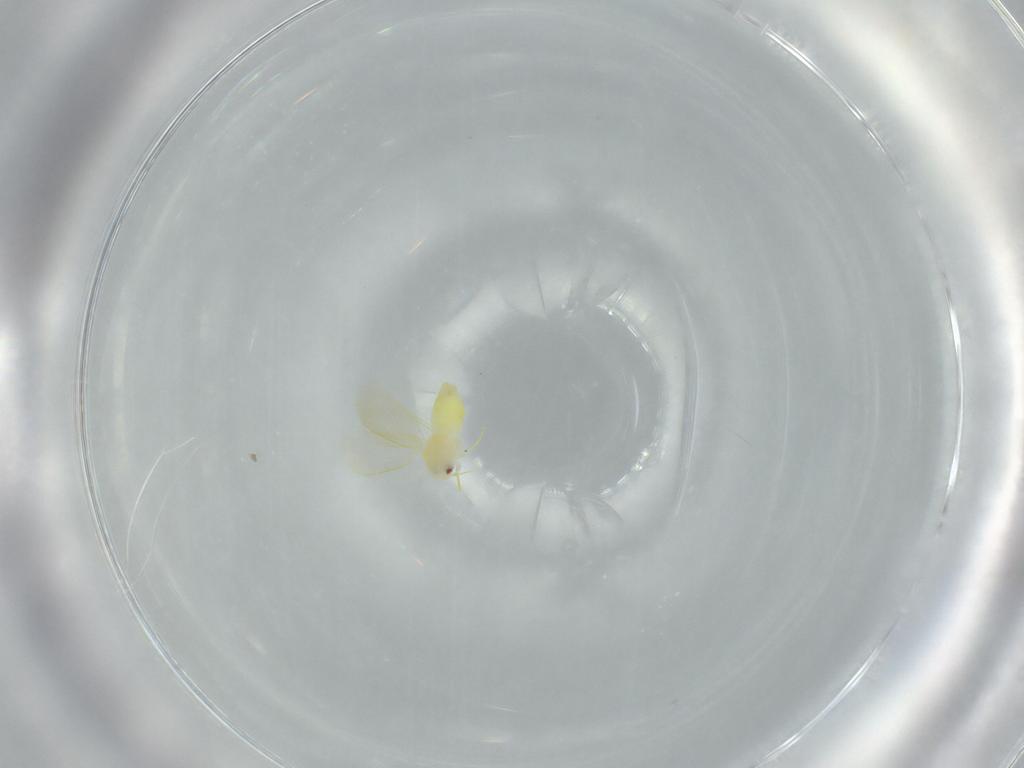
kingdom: Animalia
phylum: Arthropoda
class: Insecta
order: Hemiptera
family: Aleyrodidae
